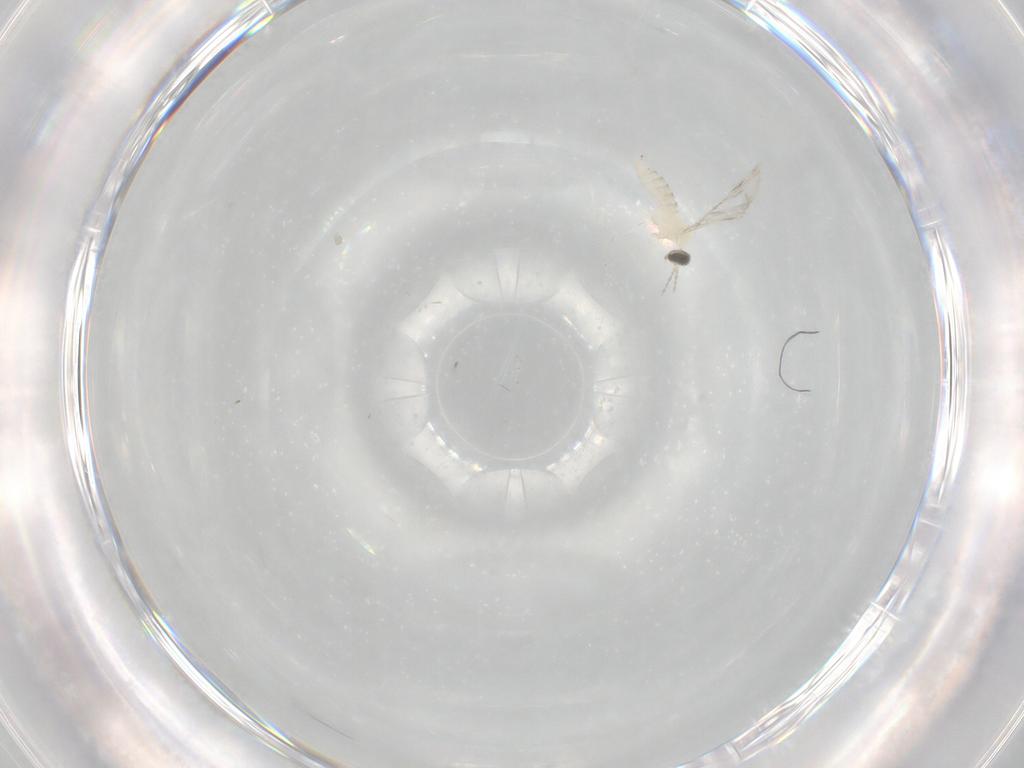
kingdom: Animalia
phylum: Arthropoda
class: Insecta
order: Diptera
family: Cecidomyiidae
